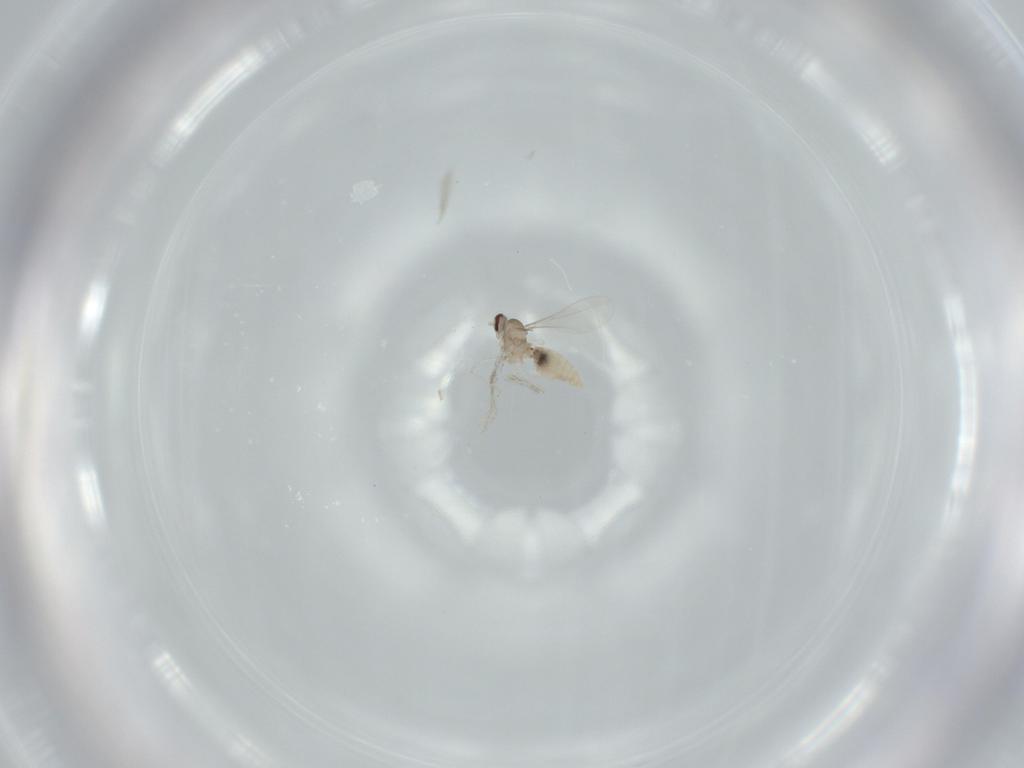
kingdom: Animalia
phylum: Arthropoda
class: Insecta
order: Diptera
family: Cecidomyiidae
